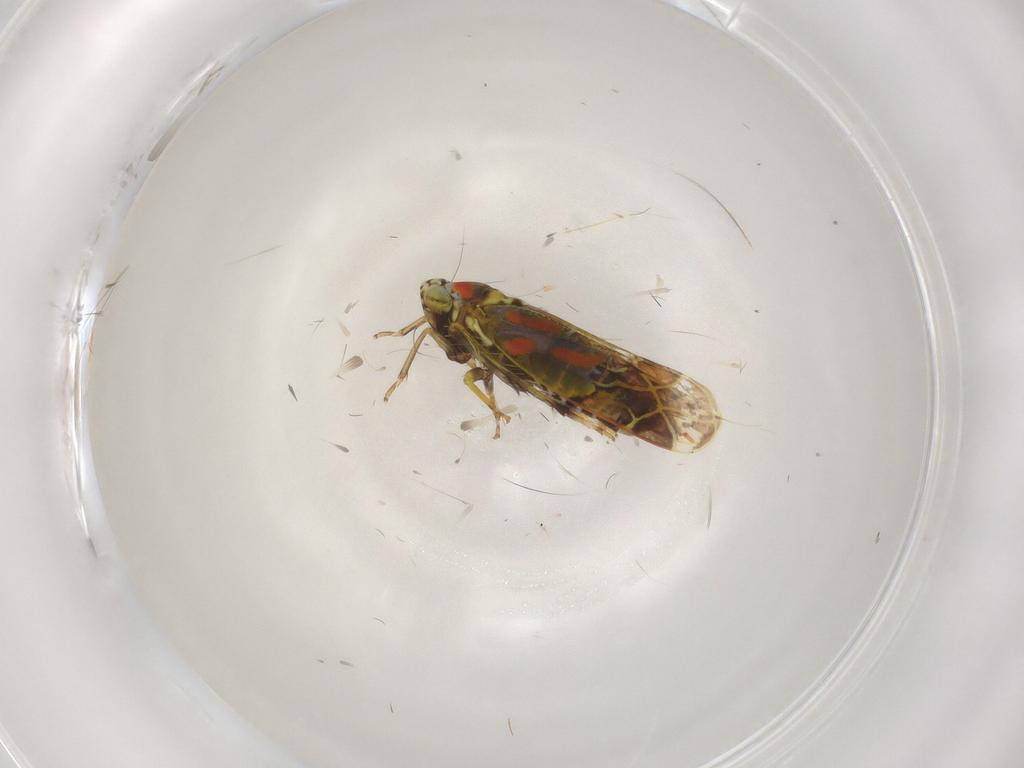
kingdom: Animalia
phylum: Arthropoda
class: Insecta
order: Hemiptera
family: Cicadellidae
